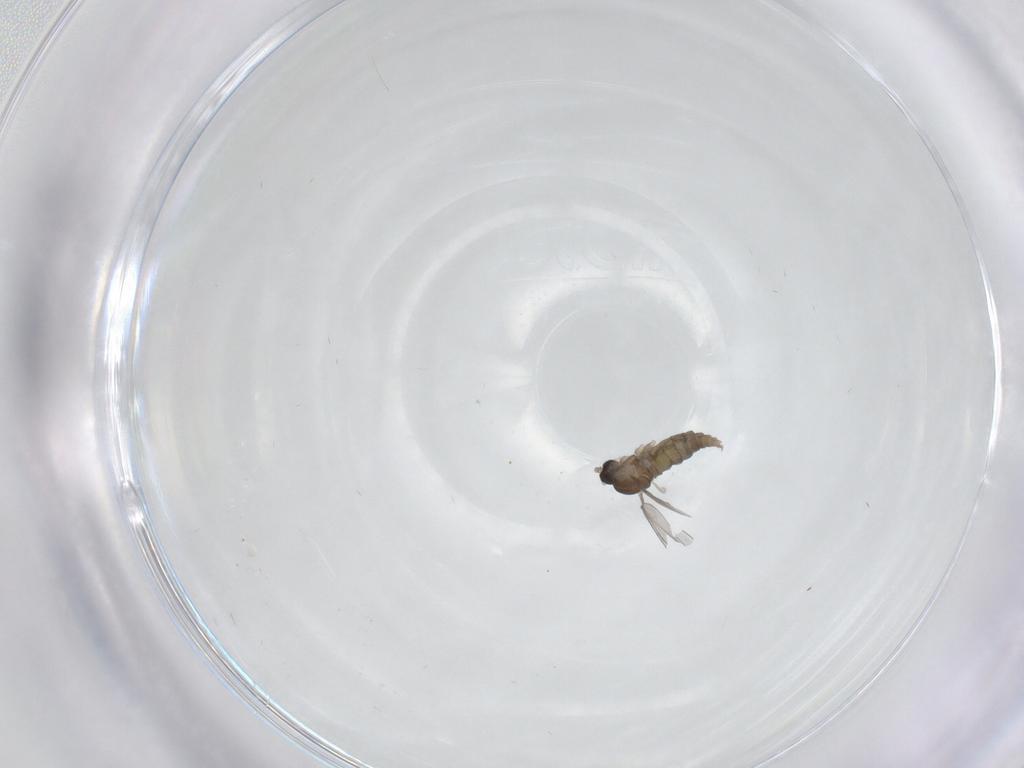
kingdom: Animalia
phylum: Arthropoda
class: Insecta
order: Diptera
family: Cecidomyiidae
